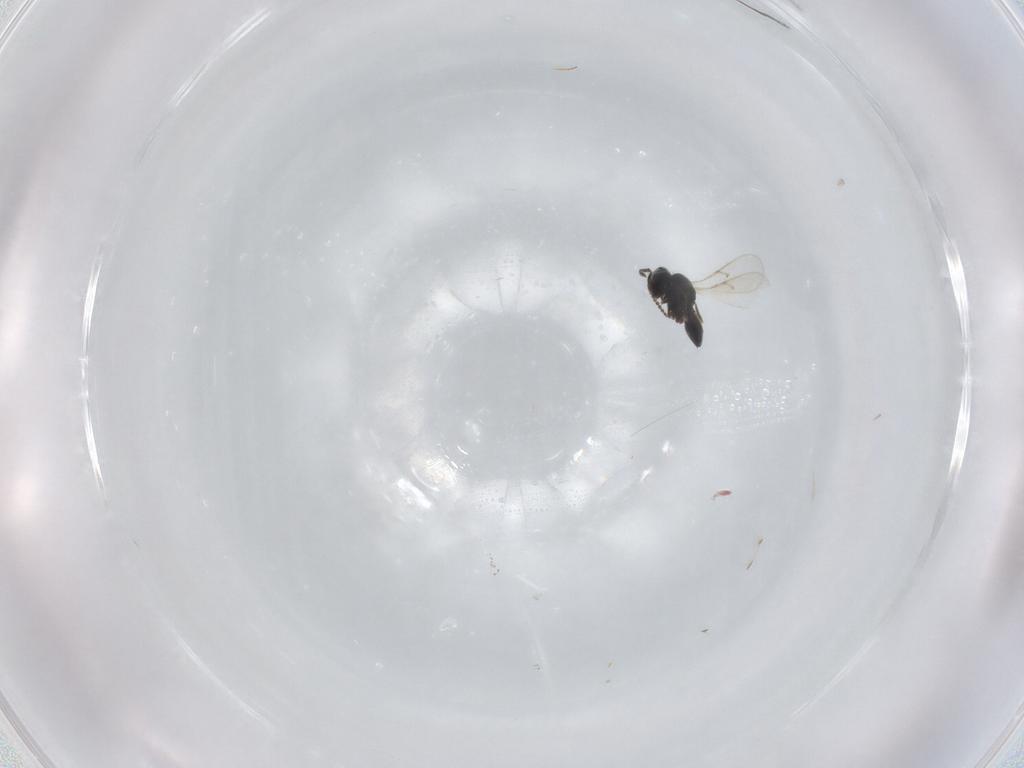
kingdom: Animalia
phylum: Arthropoda
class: Insecta
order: Hymenoptera
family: Scelionidae
